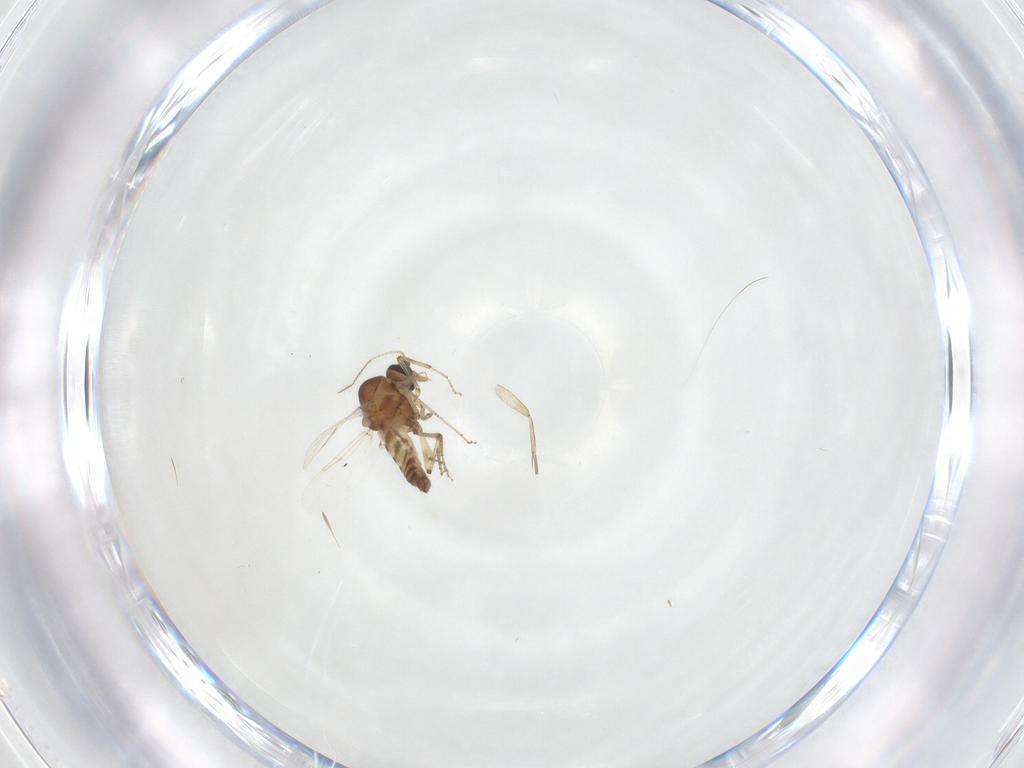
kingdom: Animalia
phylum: Arthropoda
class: Insecta
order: Diptera
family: Ceratopogonidae
